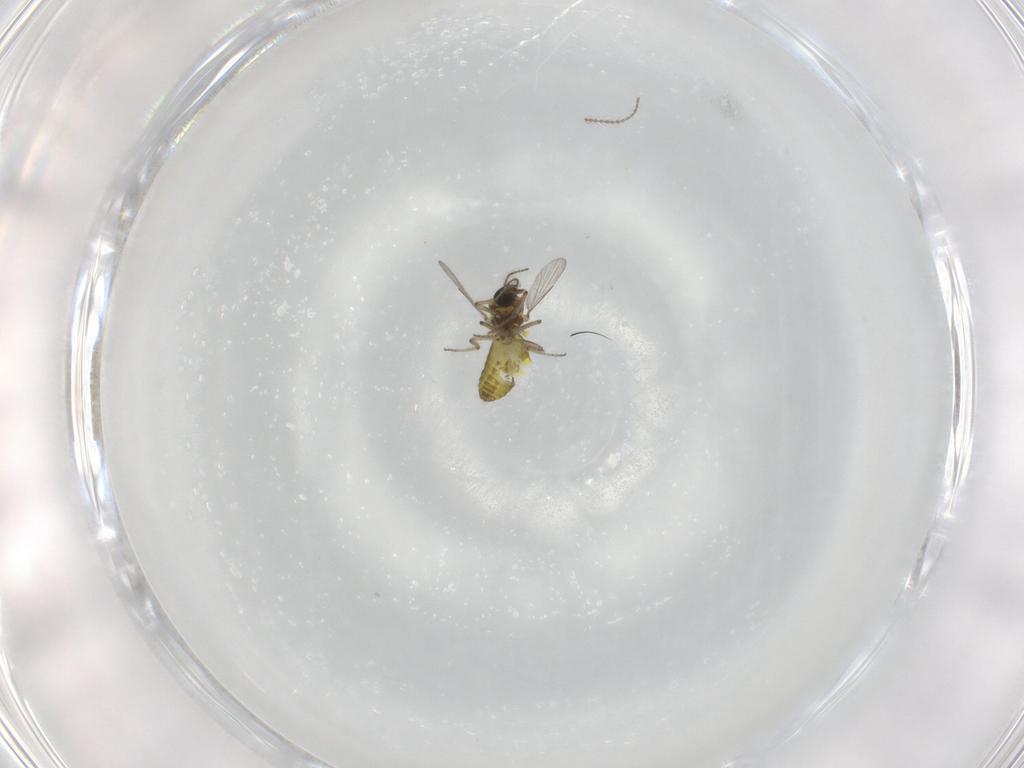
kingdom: Animalia
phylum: Arthropoda
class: Insecta
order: Diptera
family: Ceratopogonidae
